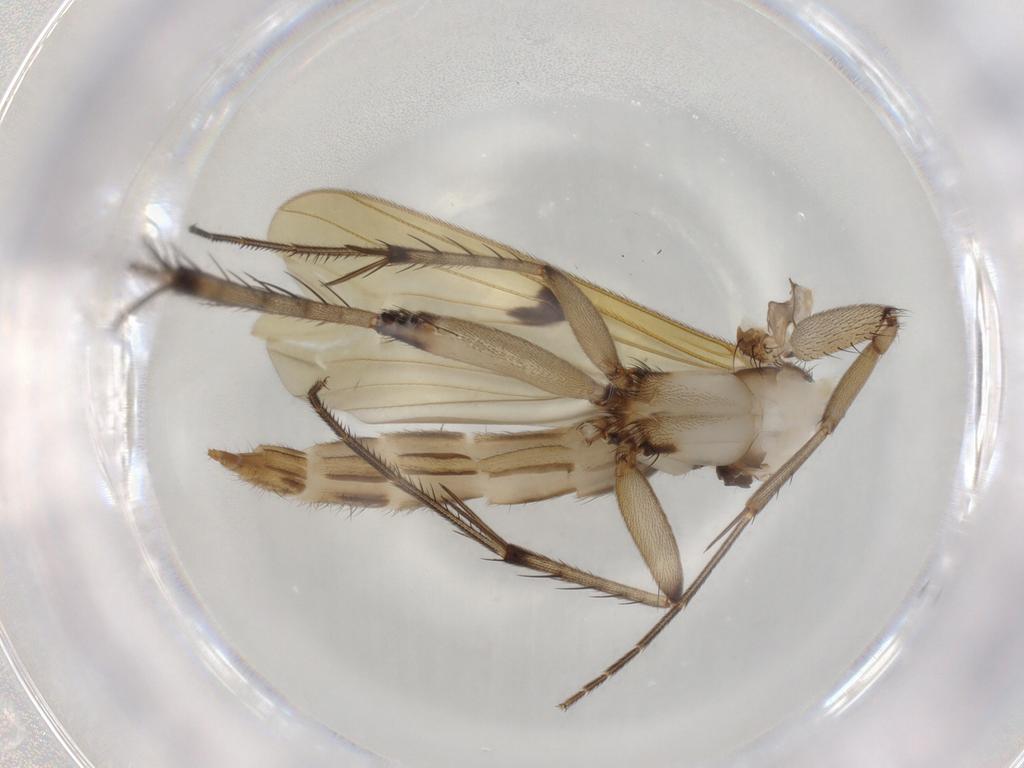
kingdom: Animalia
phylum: Arthropoda
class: Insecta
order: Diptera
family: Mycetophilidae
